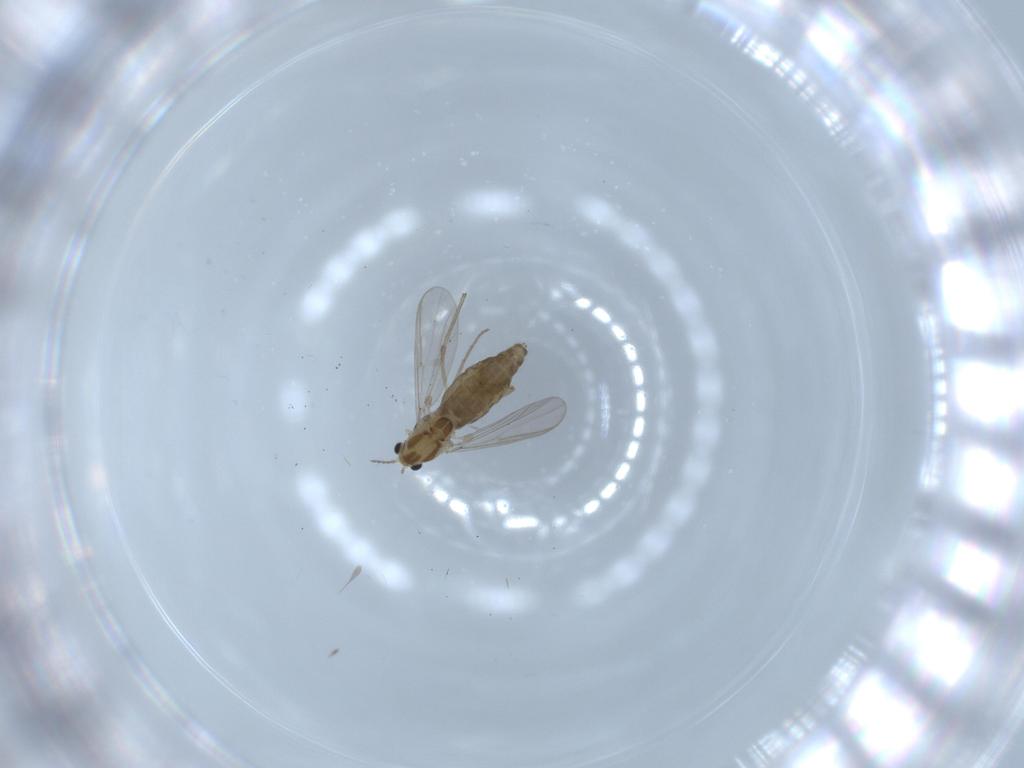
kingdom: Animalia
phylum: Arthropoda
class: Insecta
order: Diptera
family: Chironomidae
